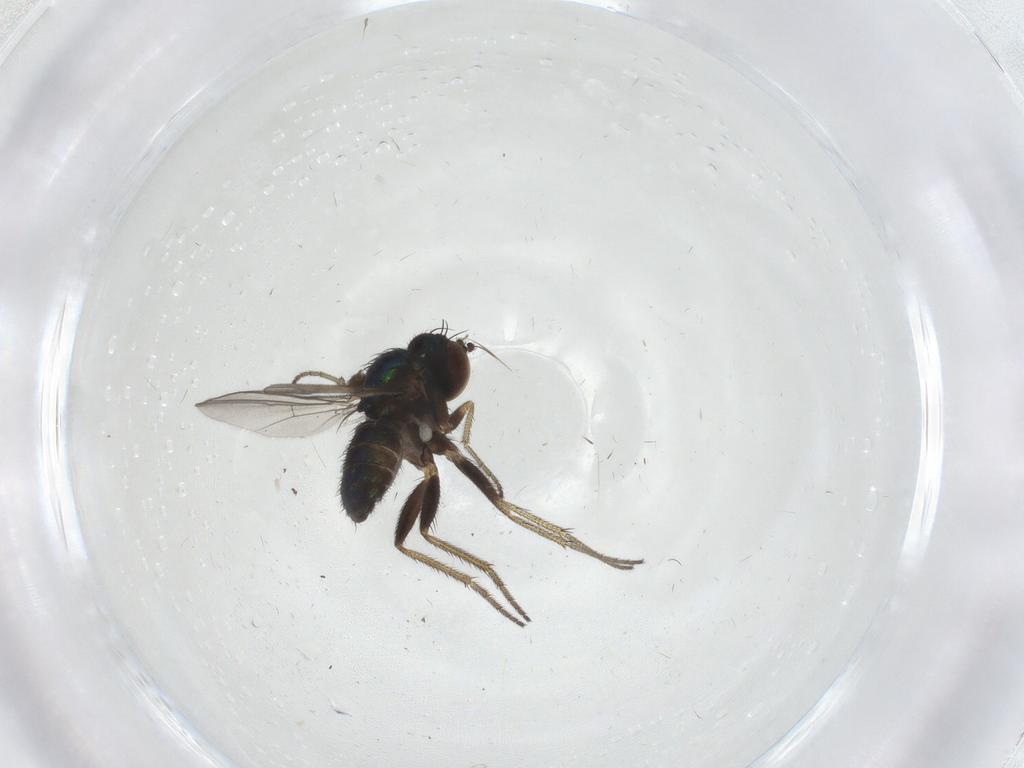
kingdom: Animalia
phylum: Arthropoda
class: Insecta
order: Diptera
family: Dolichopodidae
